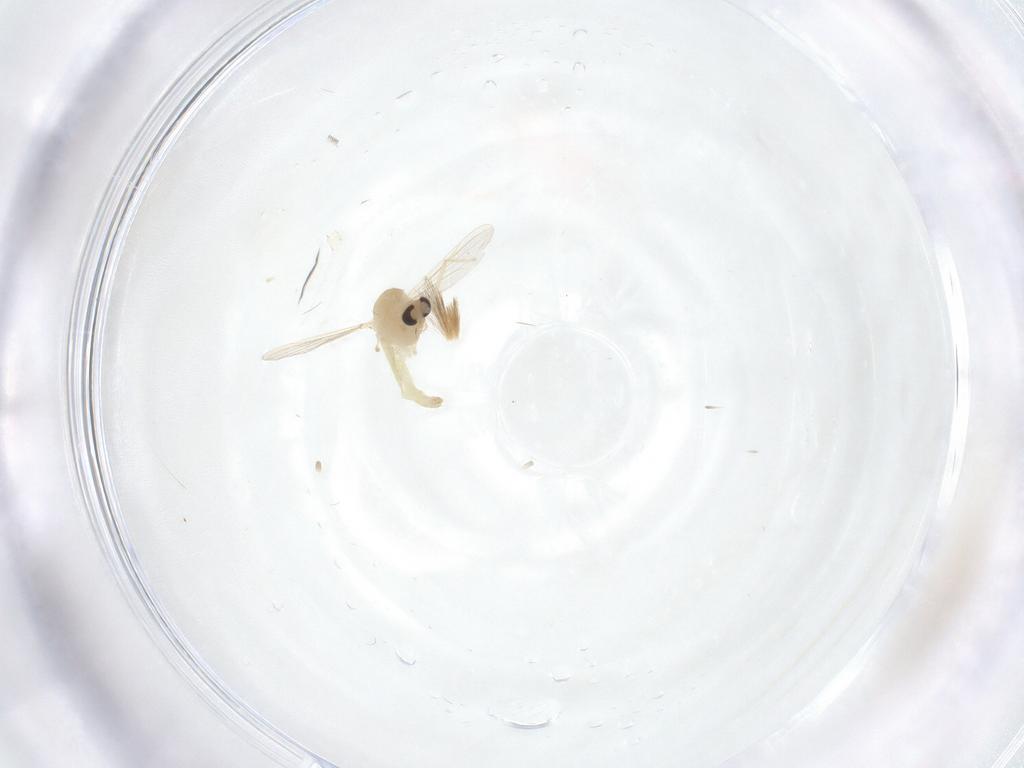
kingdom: Animalia
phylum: Arthropoda
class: Insecta
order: Diptera
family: Chironomidae
